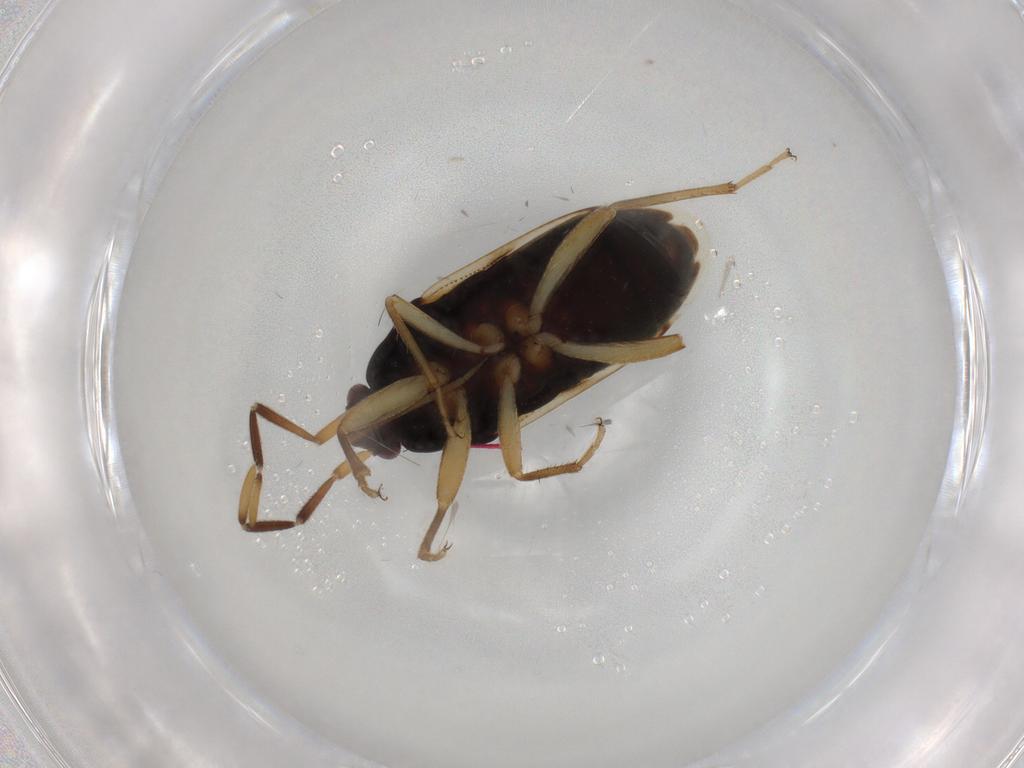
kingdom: Animalia
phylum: Arthropoda
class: Insecta
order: Hemiptera
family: Rhyparochromidae
